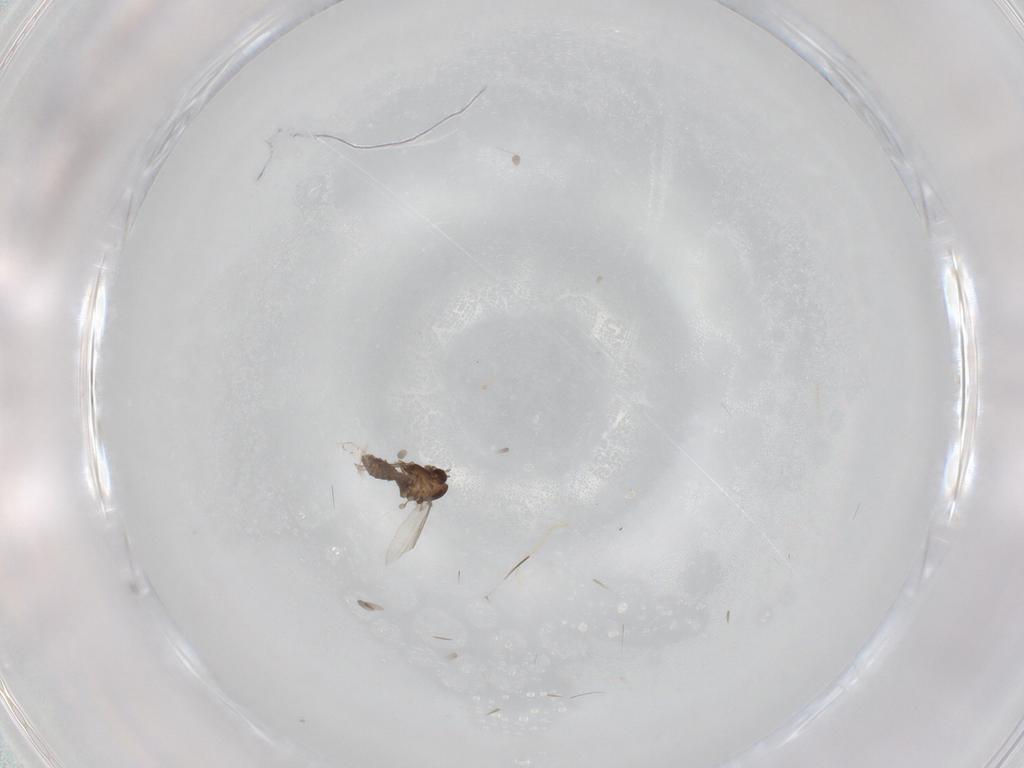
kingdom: Animalia
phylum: Arthropoda
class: Insecta
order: Diptera
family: Chironomidae
